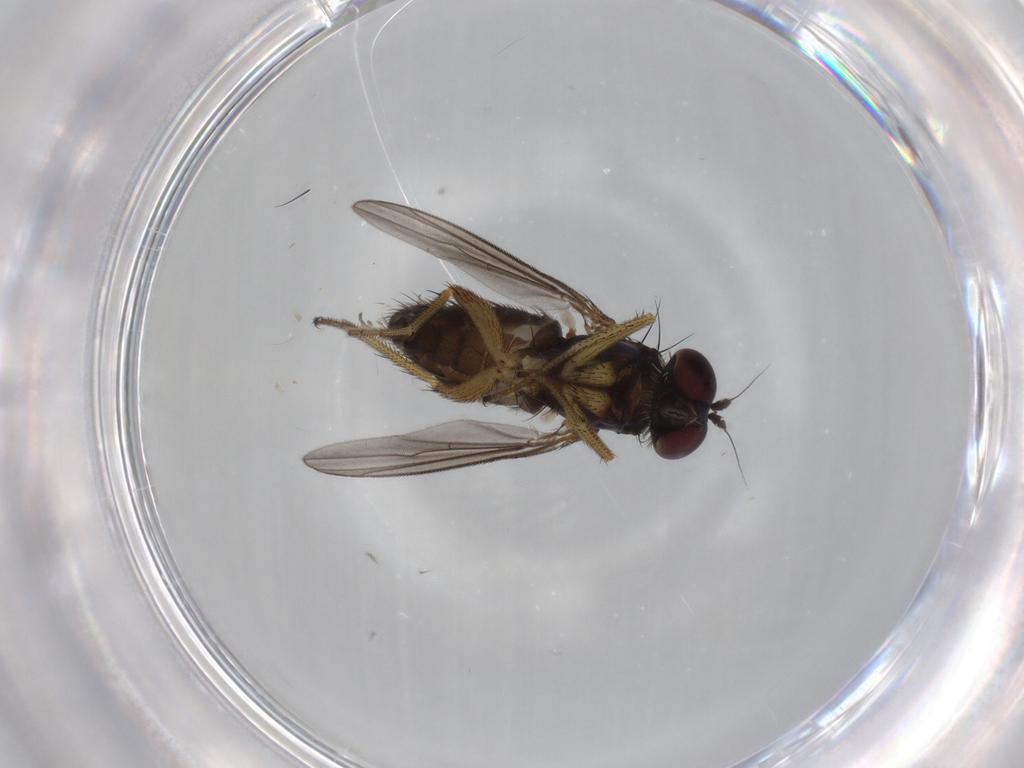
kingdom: Animalia
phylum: Arthropoda
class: Insecta
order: Diptera
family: Dolichopodidae
